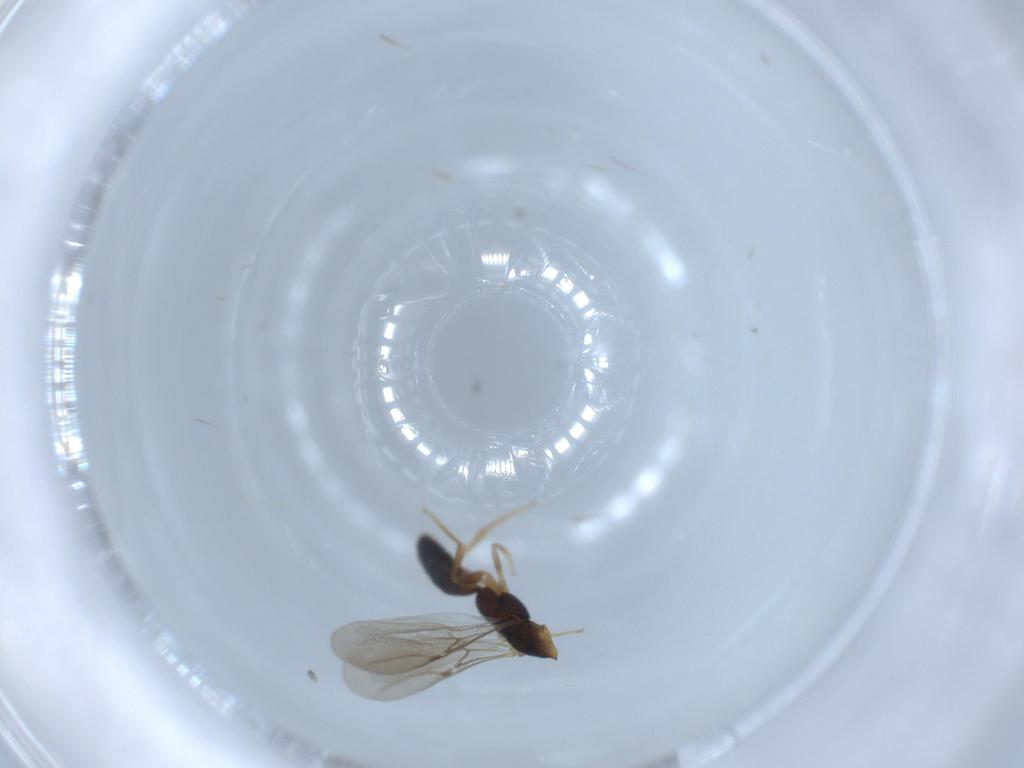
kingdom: Animalia
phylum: Arthropoda
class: Insecta
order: Hymenoptera
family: Bethylidae
